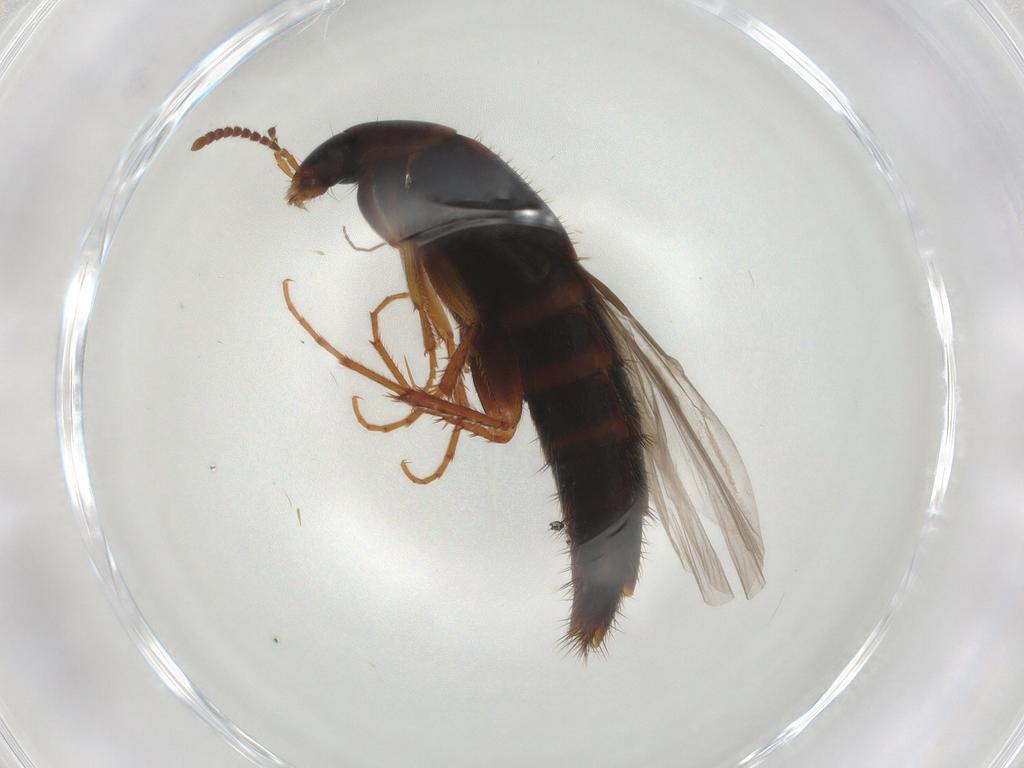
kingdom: Animalia
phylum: Arthropoda
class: Insecta
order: Coleoptera
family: Staphylinidae
